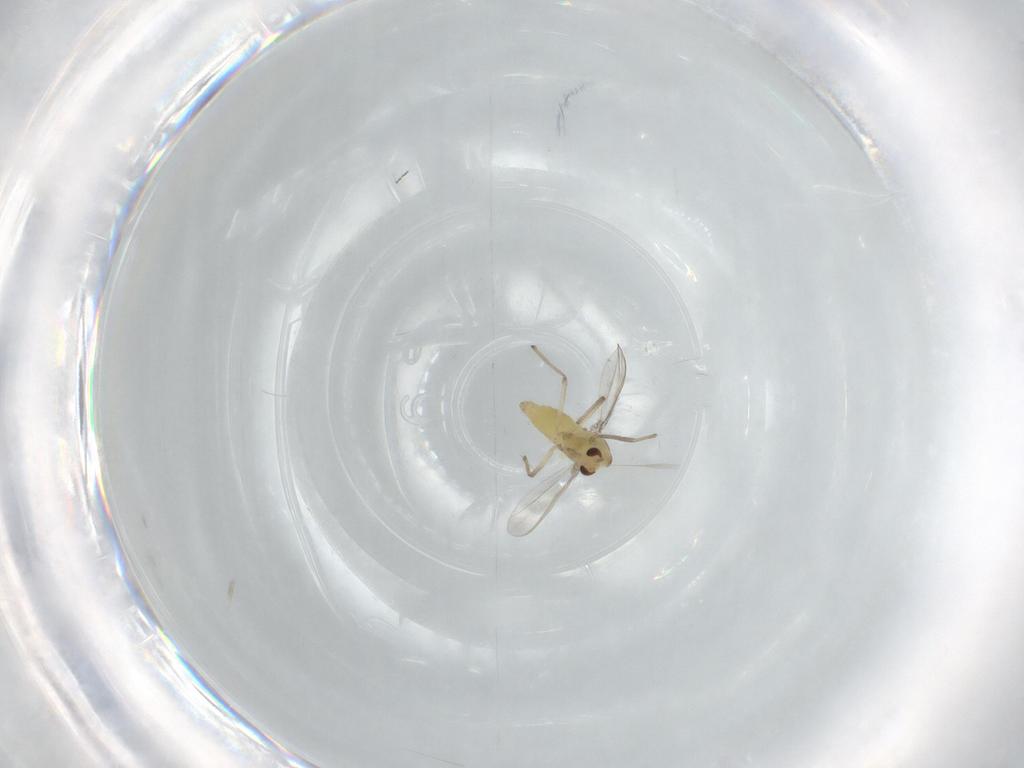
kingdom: Animalia
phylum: Arthropoda
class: Insecta
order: Diptera
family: Chironomidae
